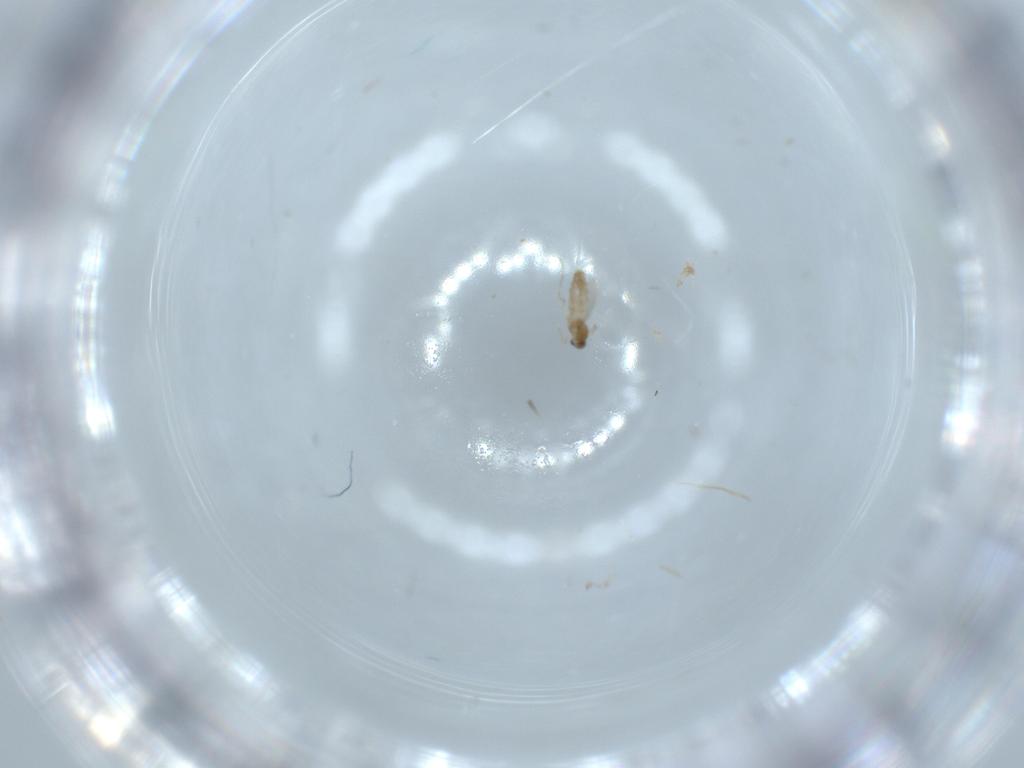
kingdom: Animalia
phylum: Arthropoda
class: Insecta
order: Diptera
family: Cecidomyiidae
